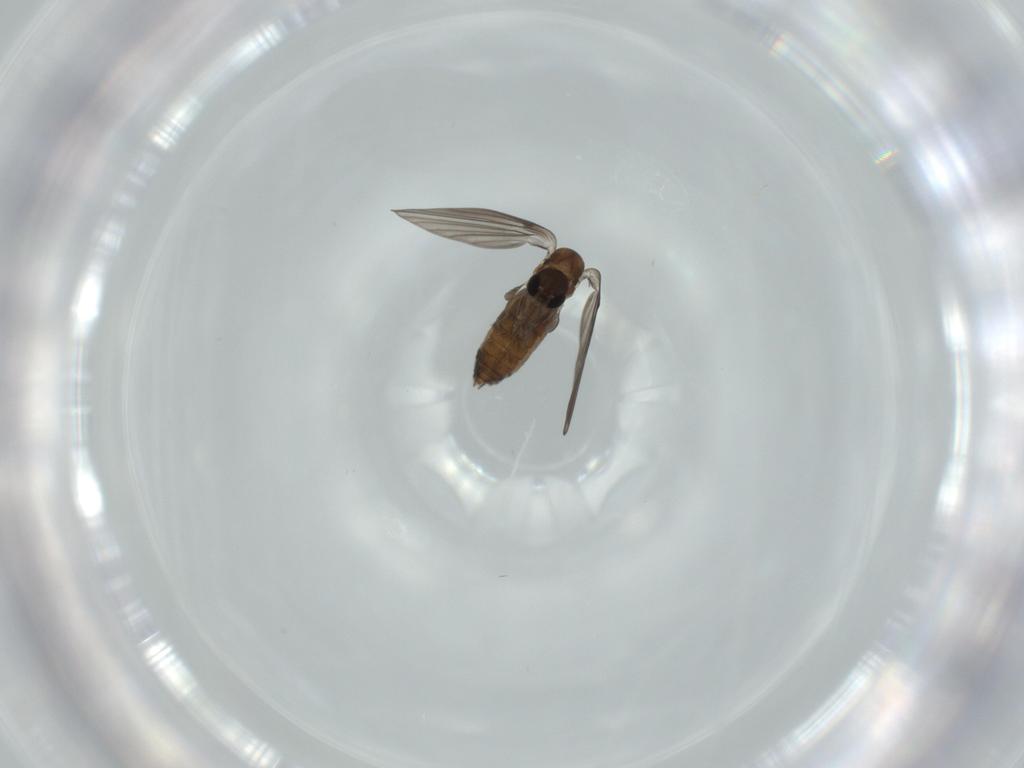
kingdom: Animalia
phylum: Arthropoda
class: Insecta
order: Diptera
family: Psychodidae
